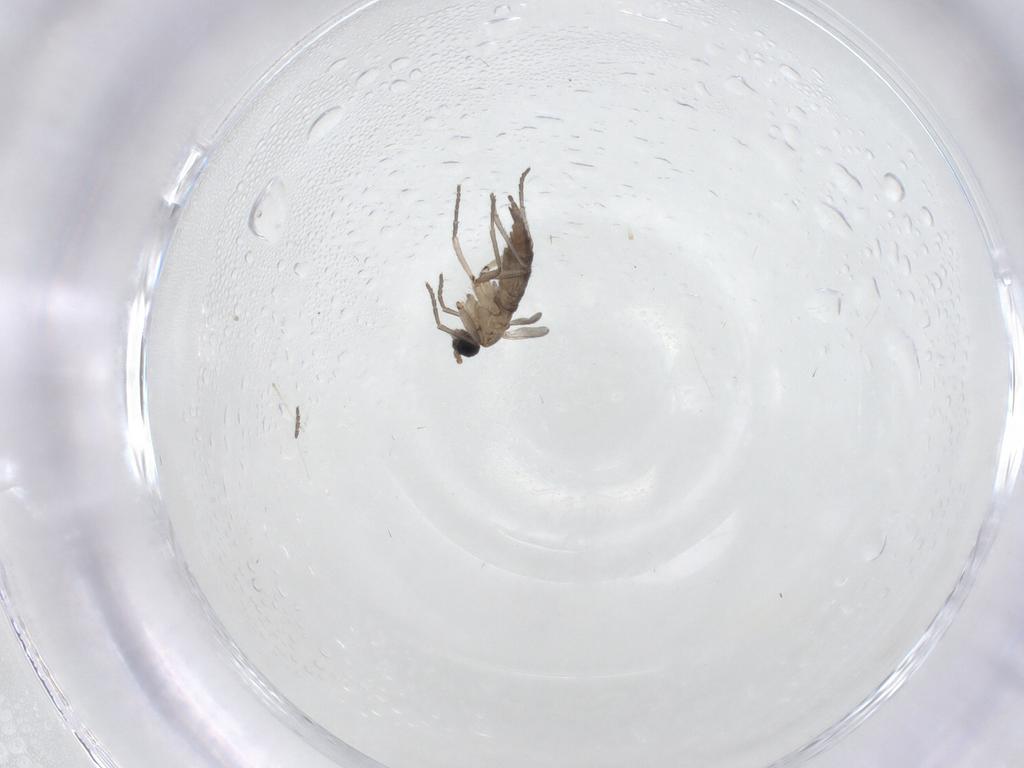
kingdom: Animalia
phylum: Arthropoda
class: Insecta
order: Diptera
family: Sciaridae
